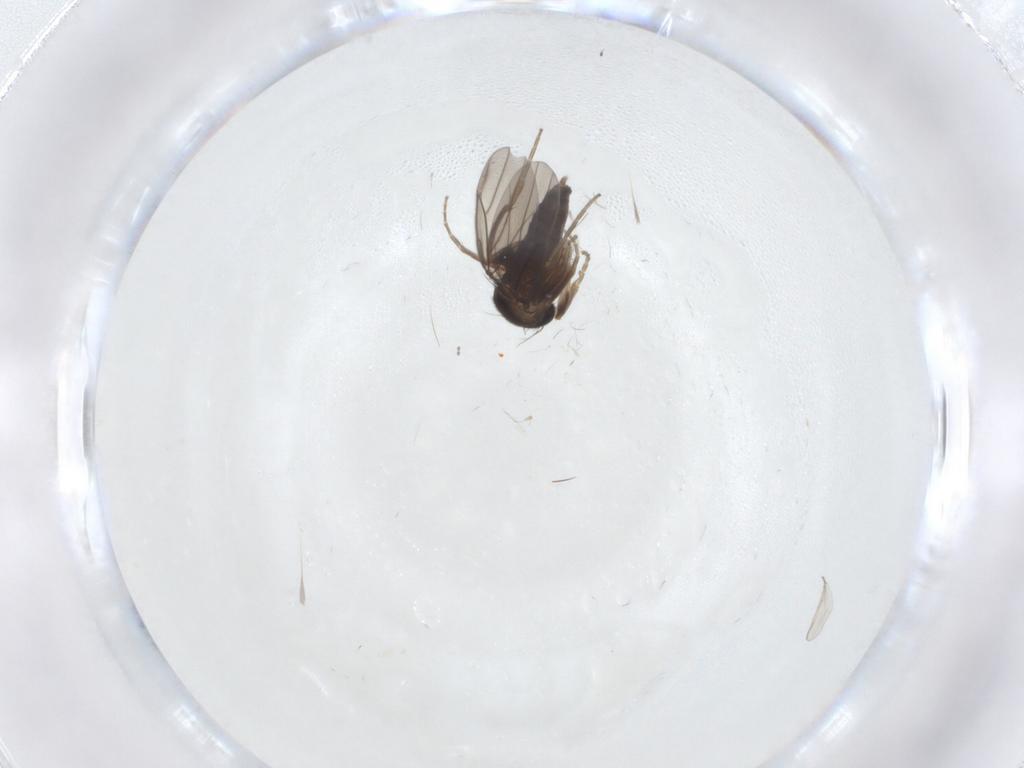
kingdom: Animalia
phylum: Arthropoda
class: Insecta
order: Diptera
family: Cecidomyiidae
